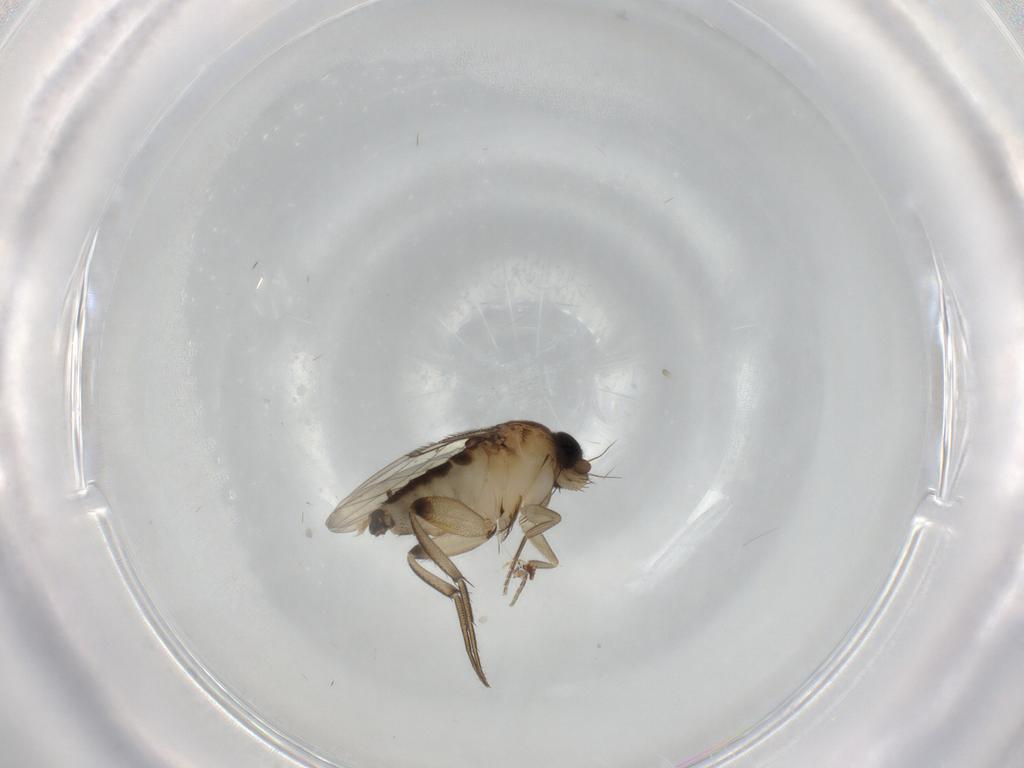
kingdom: Animalia
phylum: Arthropoda
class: Insecta
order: Diptera
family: Phoridae
